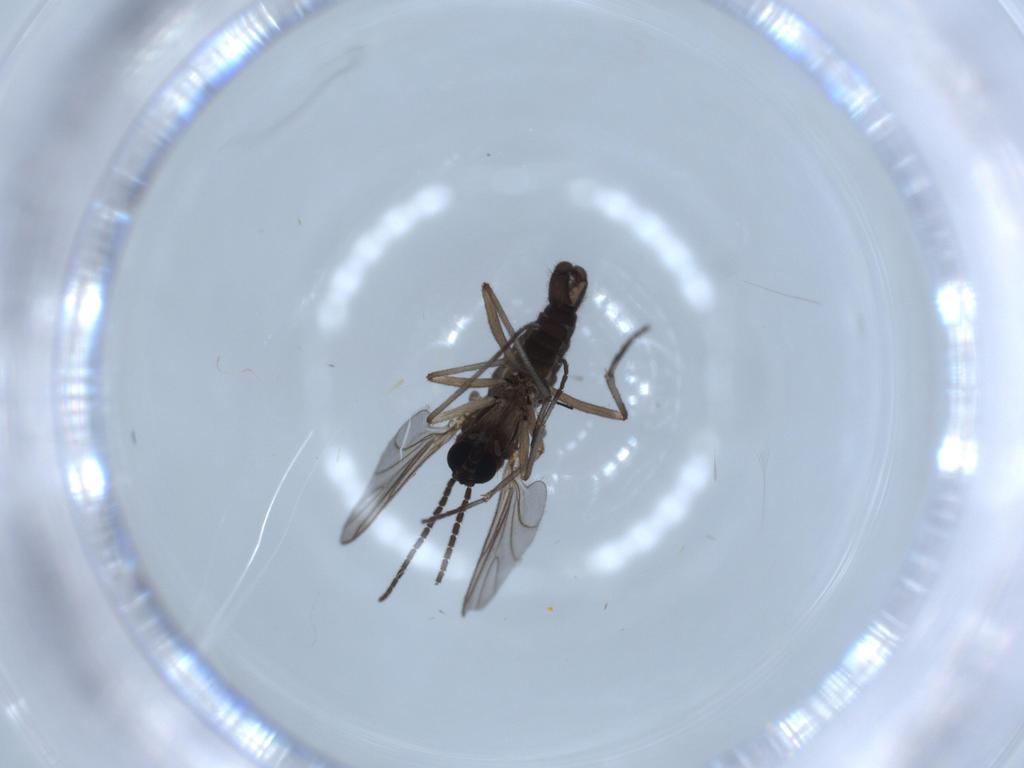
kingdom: Animalia
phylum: Arthropoda
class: Insecta
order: Diptera
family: Sciaridae
